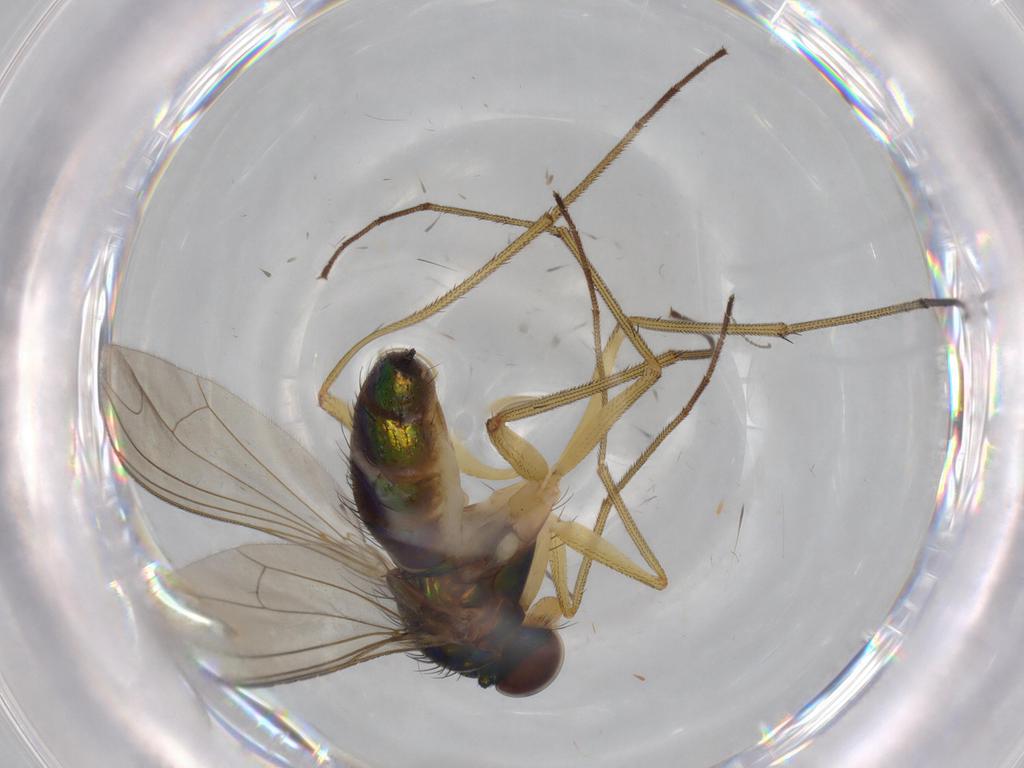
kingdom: Animalia
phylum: Arthropoda
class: Insecta
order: Diptera
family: Dolichopodidae
